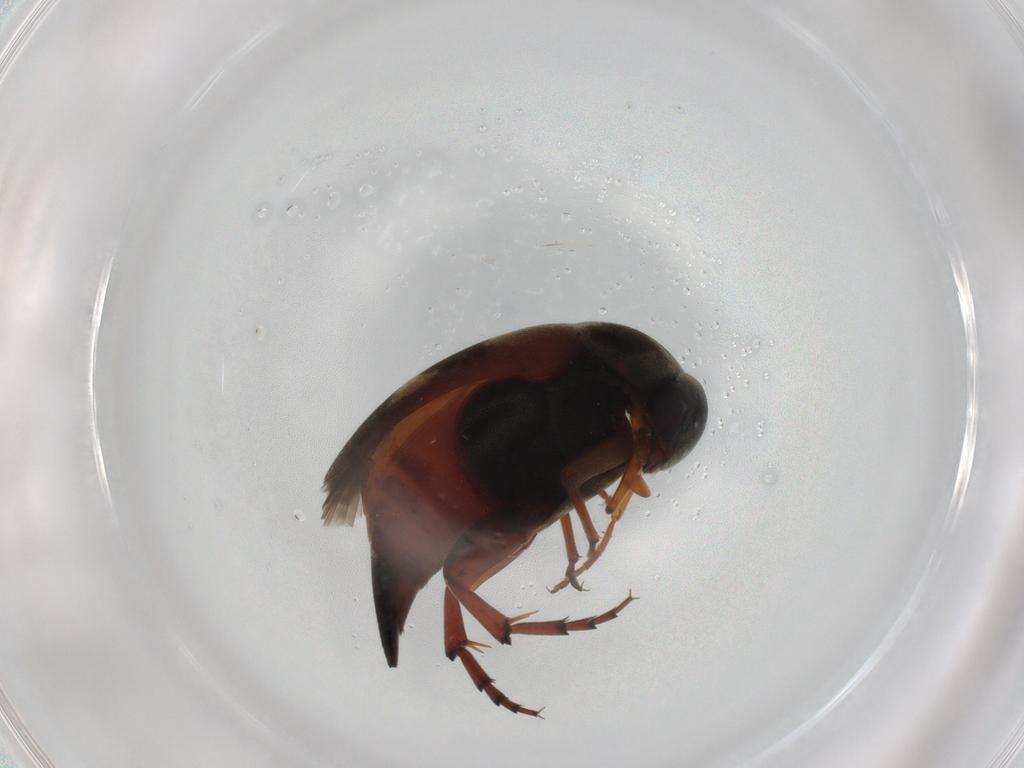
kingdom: Animalia
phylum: Arthropoda
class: Insecta
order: Coleoptera
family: Mordellidae
